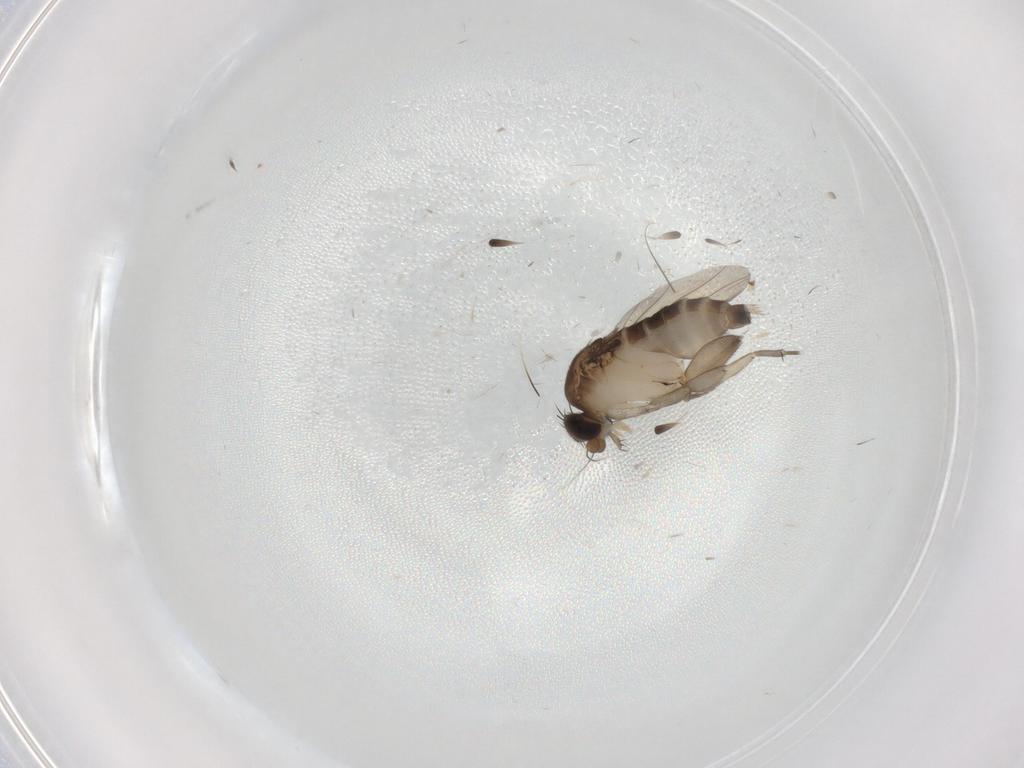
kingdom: Animalia
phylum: Arthropoda
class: Insecta
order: Diptera
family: Phoridae
